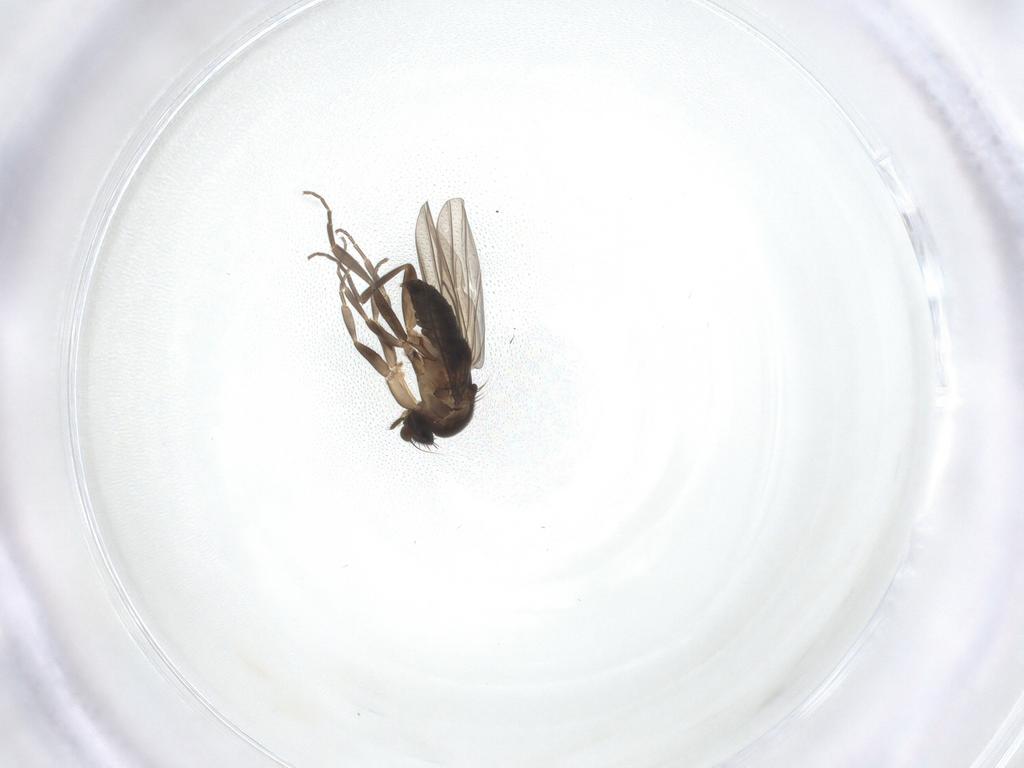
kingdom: Animalia
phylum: Arthropoda
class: Insecta
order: Diptera
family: Phoridae
